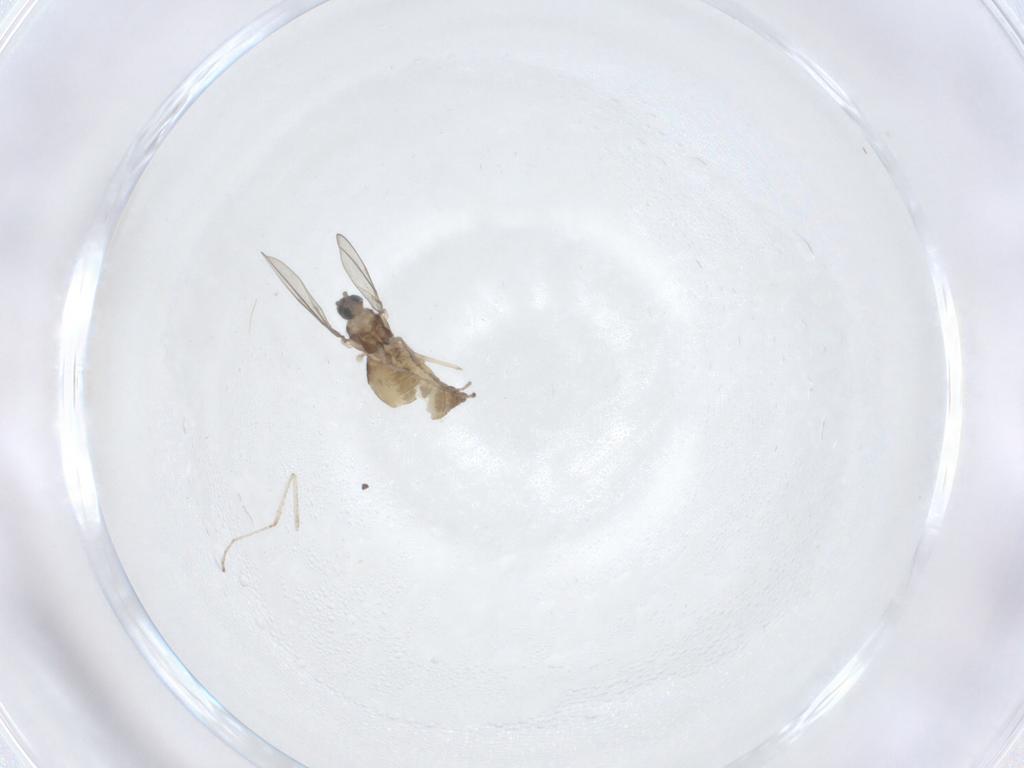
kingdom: Animalia
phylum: Arthropoda
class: Insecta
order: Diptera
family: Cecidomyiidae
